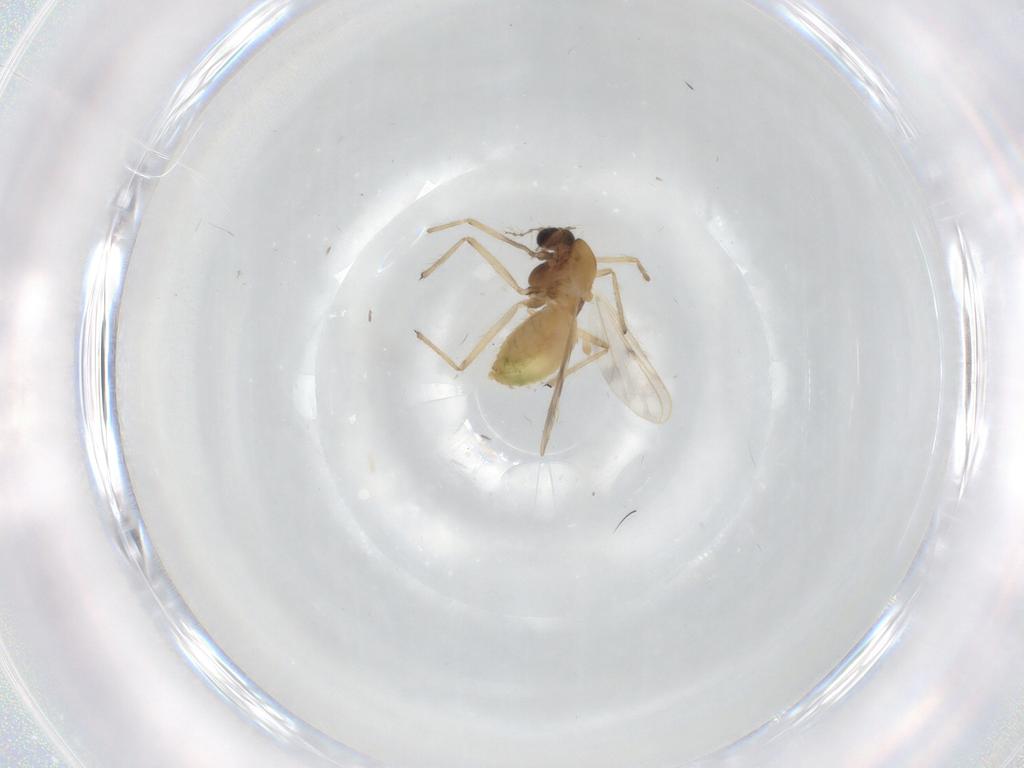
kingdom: Animalia
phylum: Arthropoda
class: Insecta
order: Diptera
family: Chironomidae
